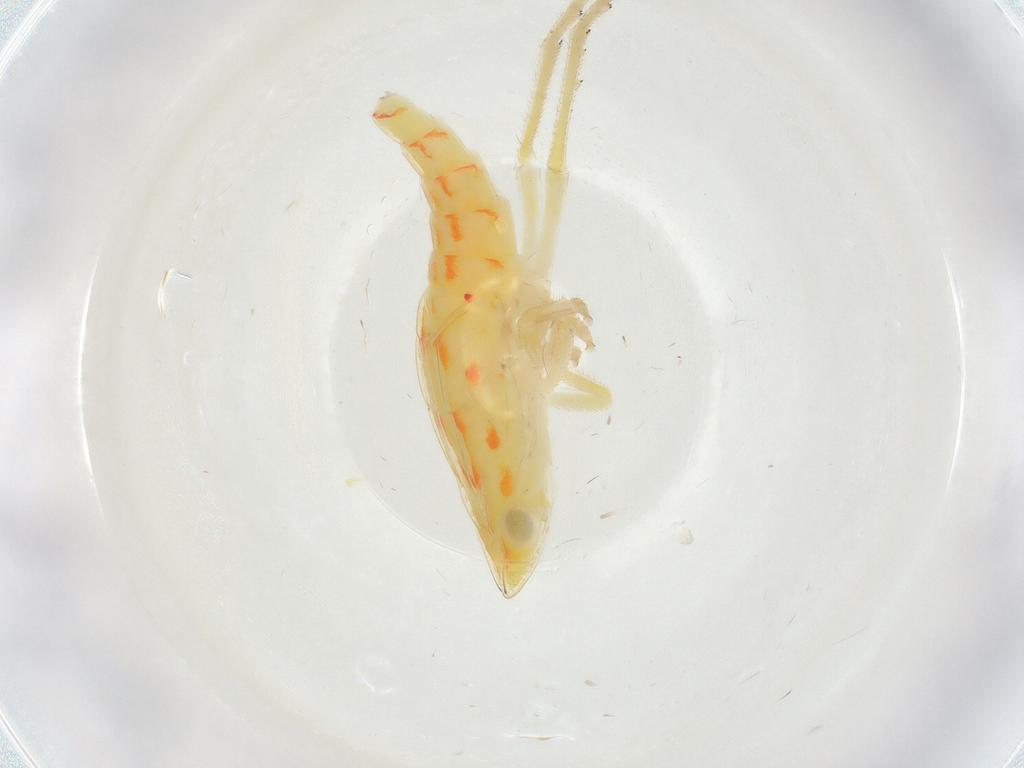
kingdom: Animalia
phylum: Arthropoda
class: Insecta
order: Hemiptera
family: Tropiduchidae
